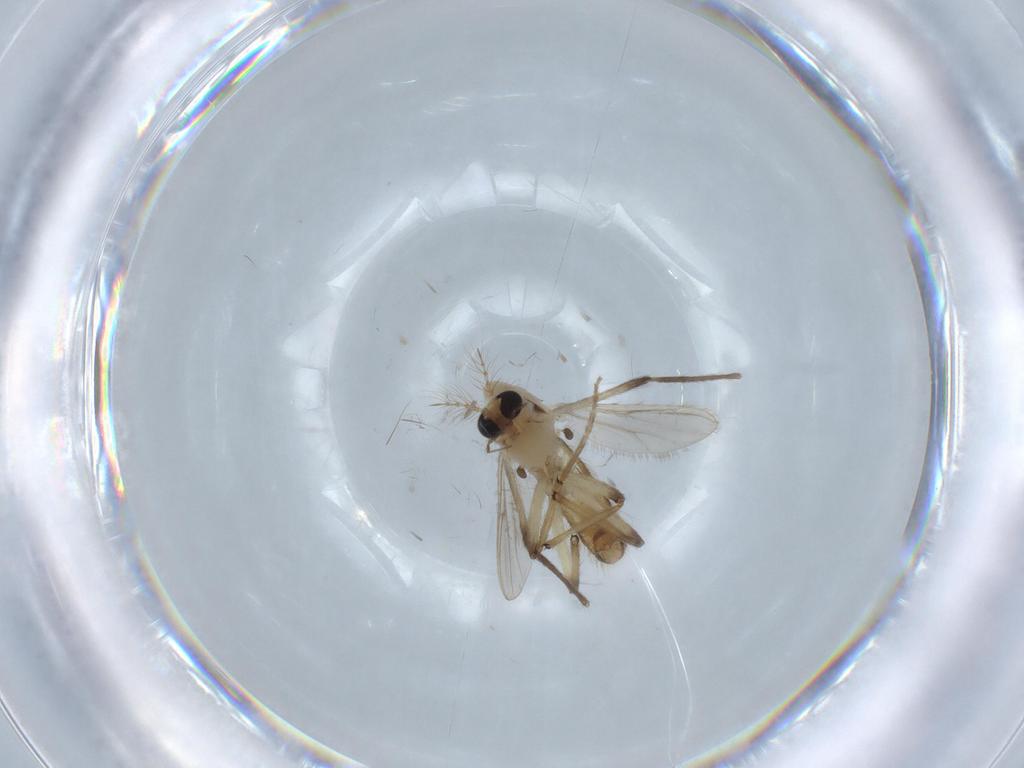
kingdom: Animalia
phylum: Arthropoda
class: Insecta
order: Diptera
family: Chironomidae
